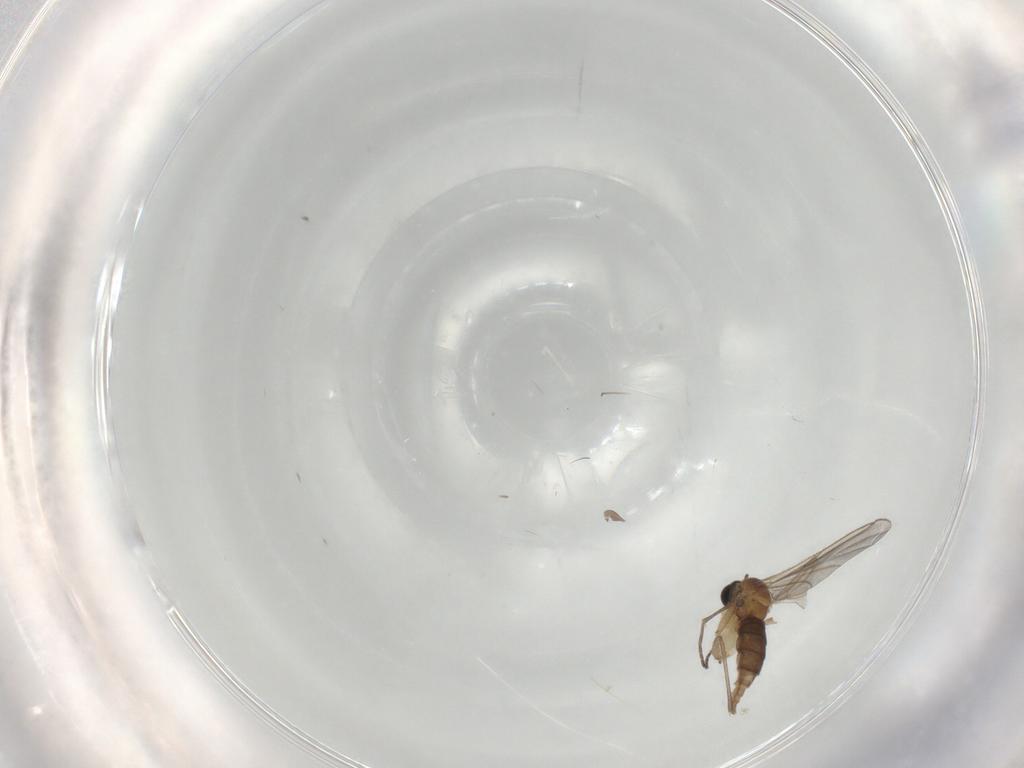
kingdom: Animalia
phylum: Arthropoda
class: Insecta
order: Diptera
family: Sciaridae
